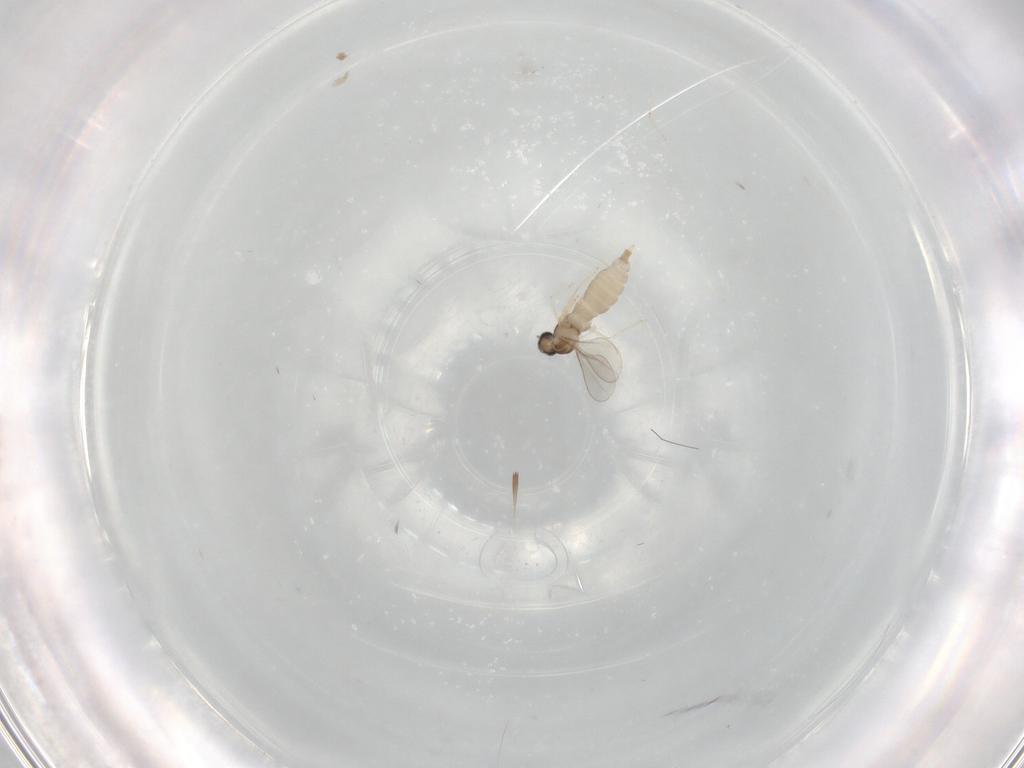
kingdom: Animalia
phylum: Arthropoda
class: Insecta
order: Diptera
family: Cecidomyiidae
